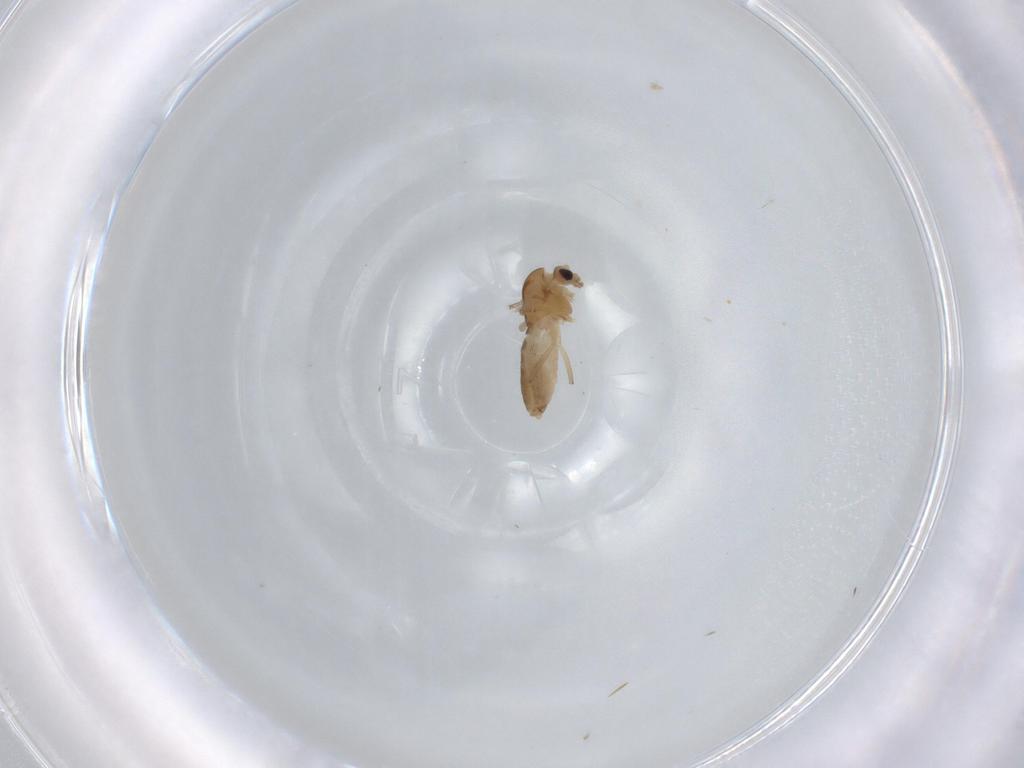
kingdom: Animalia
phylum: Arthropoda
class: Insecta
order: Diptera
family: Chironomidae
